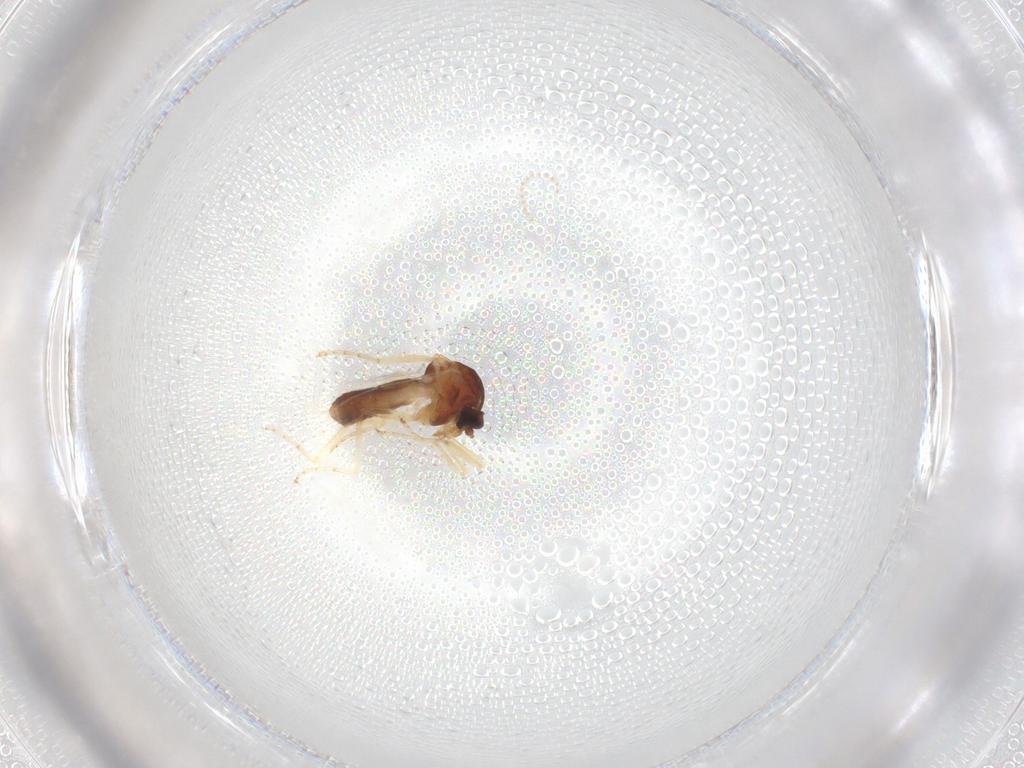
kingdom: Animalia
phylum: Arthropoda
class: Insecta
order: Diptera
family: Ceratopogonidae
